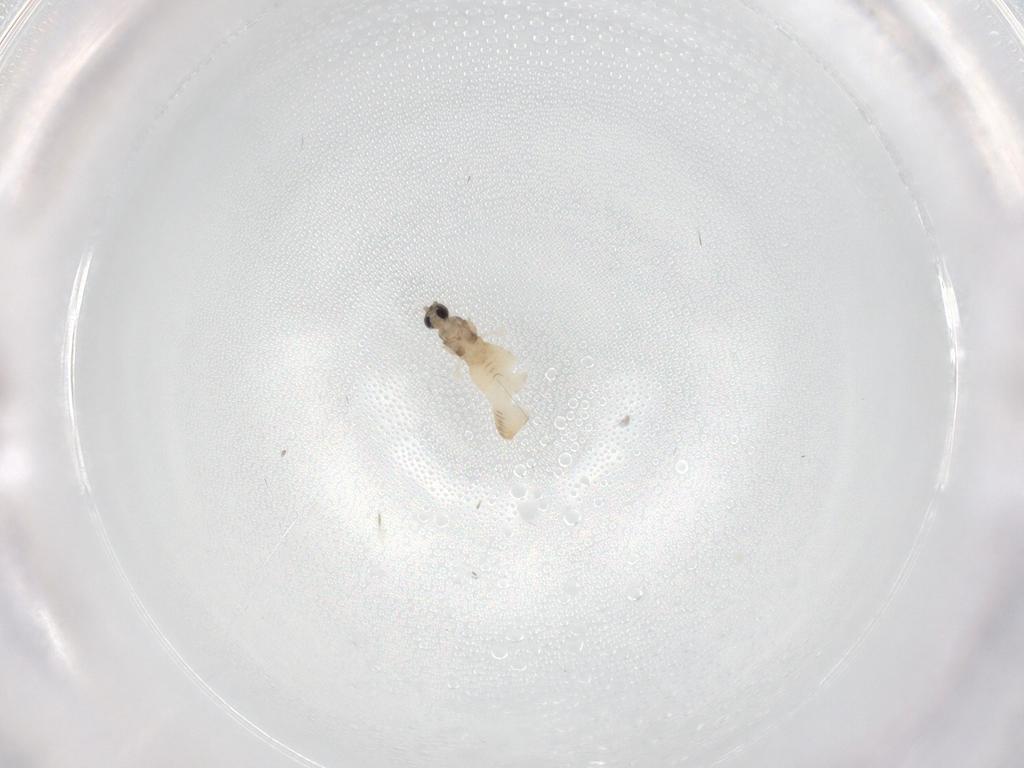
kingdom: Animalia
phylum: Arthropoda
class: Insecta
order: Diptera
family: Cecidomyiidae
